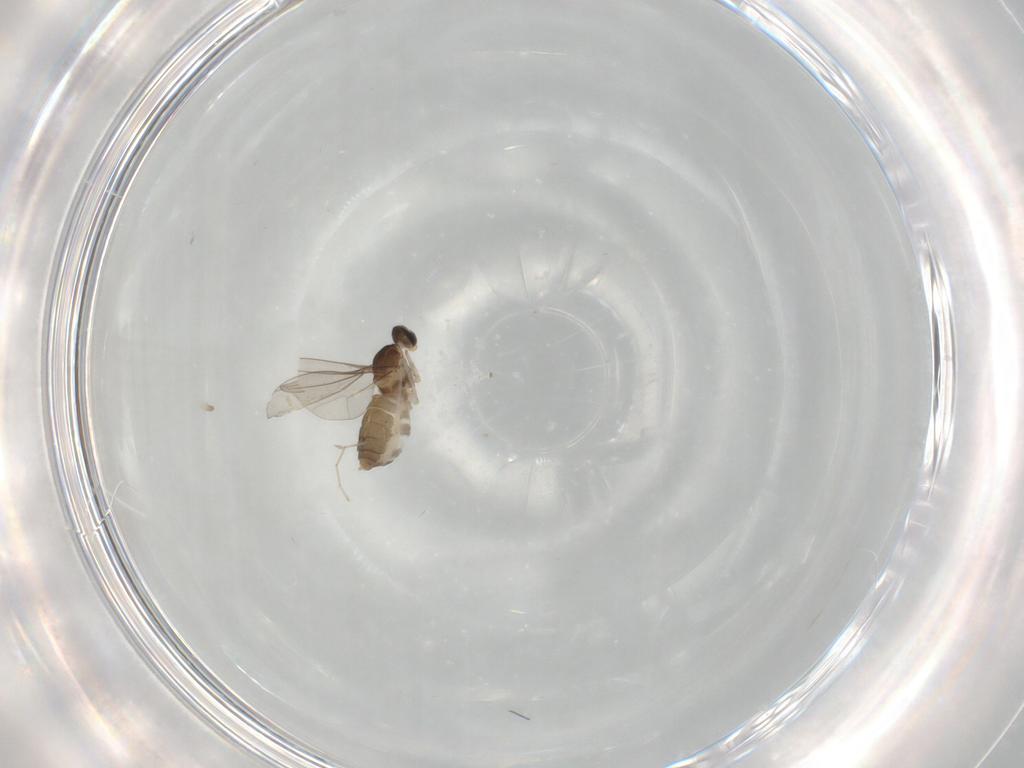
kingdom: Animalia
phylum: Arthropoda
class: Insecta
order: Diptera
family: Cecidomyiidae
